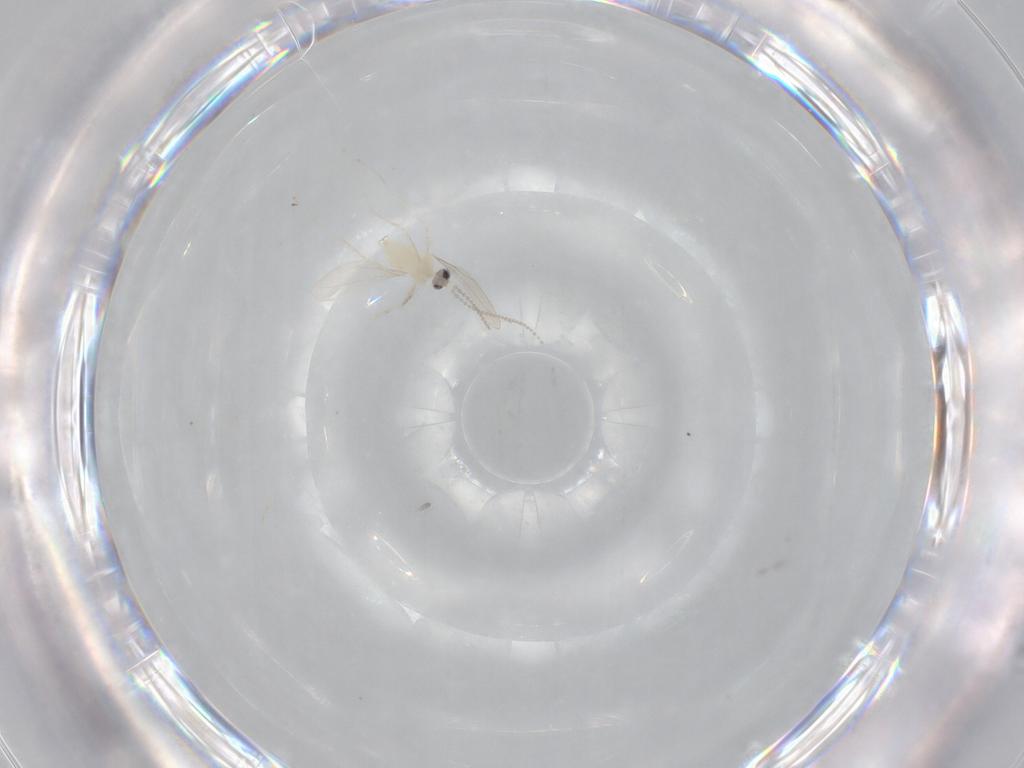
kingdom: Animalia
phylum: Arthropoda
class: Insecta
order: Diptera
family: Cecidomyiidae
